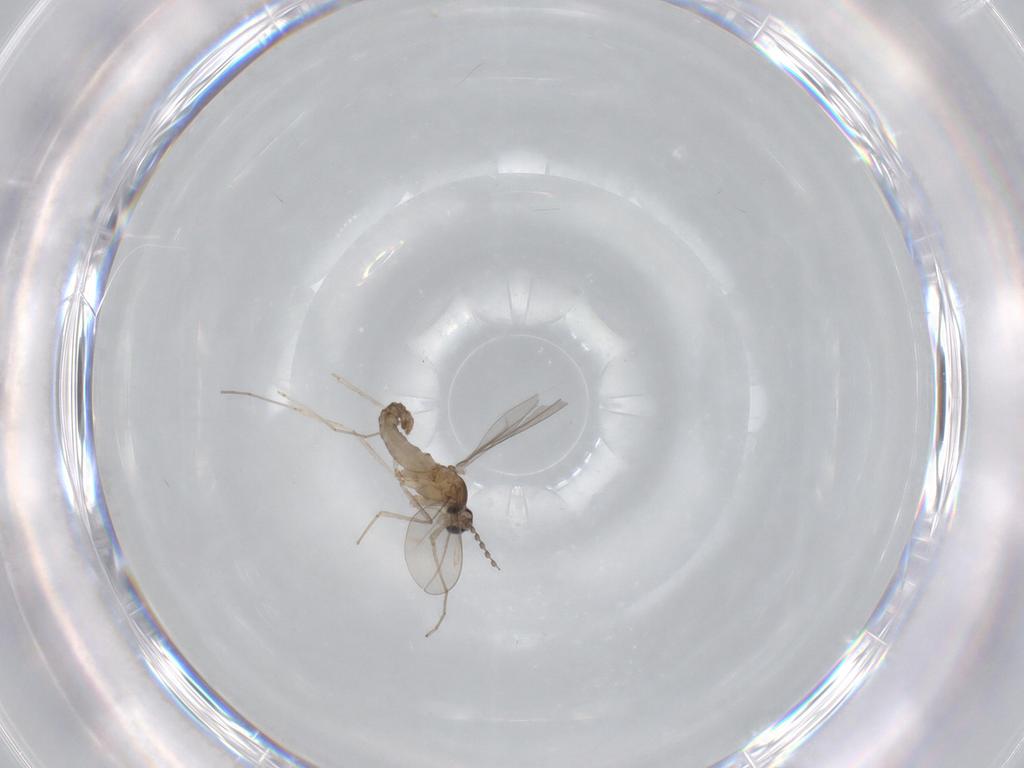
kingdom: Animalia
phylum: Arthropoda
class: Insecta
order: Diptera
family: Cecidomyiidae
